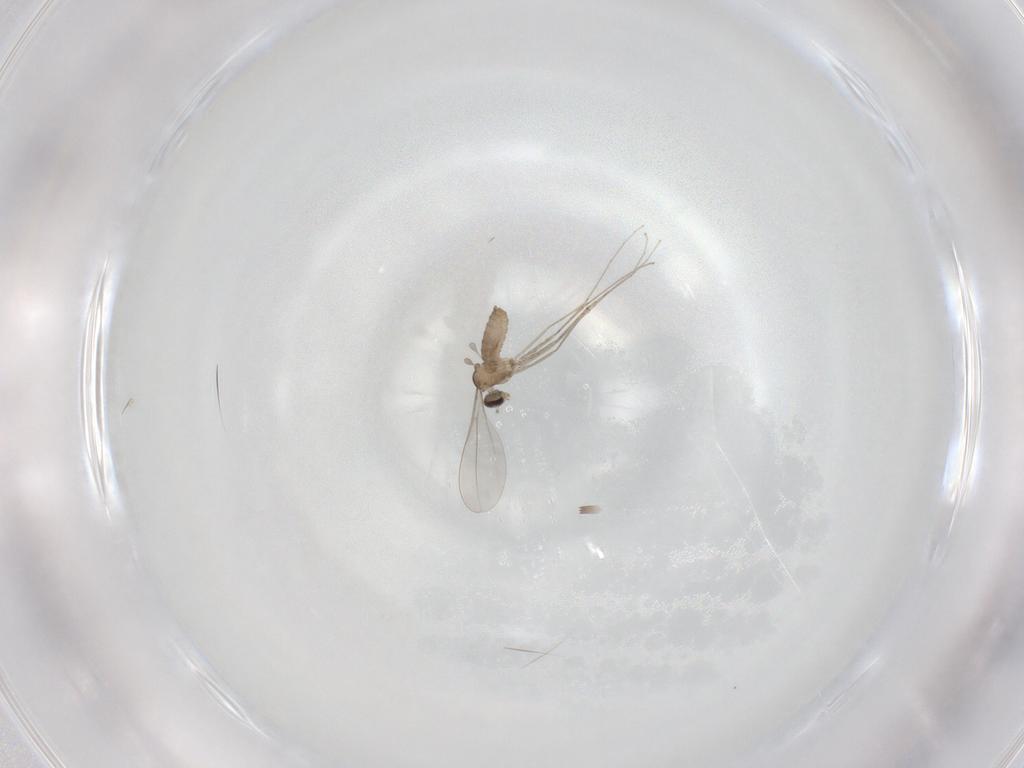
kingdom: Animalia
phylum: Arthropoda
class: Insecta
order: Diptera
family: Cecidomyiidae
